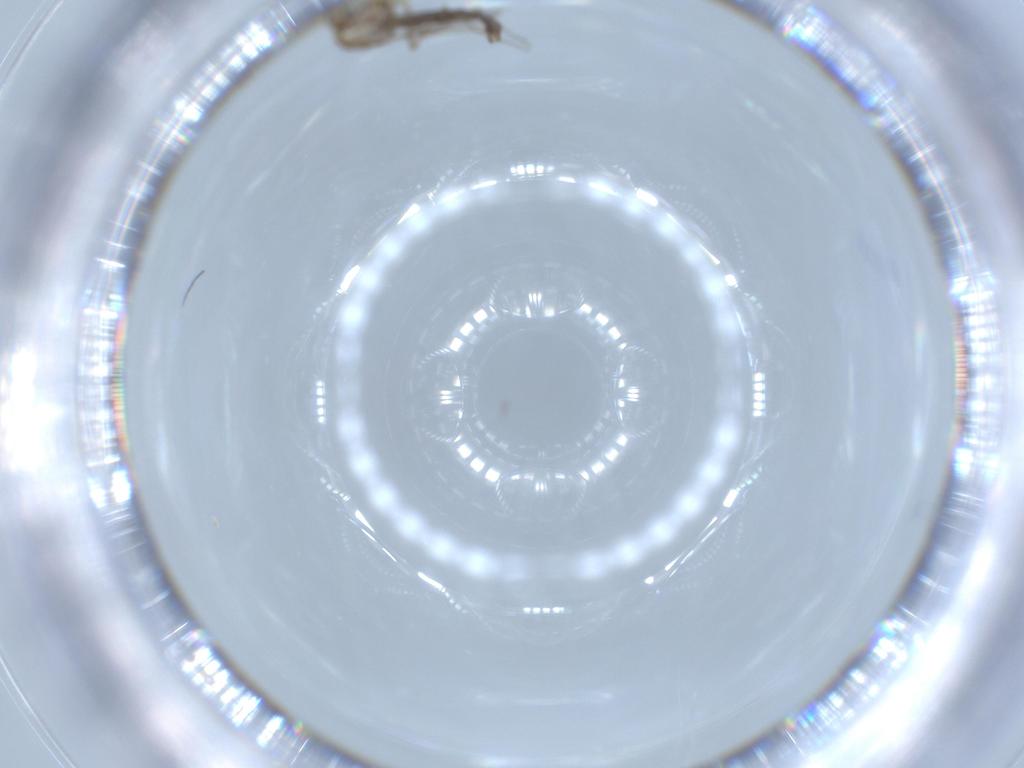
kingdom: Animalia
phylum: Arthropoda
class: Insecta
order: Diptera
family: Chironomidae
